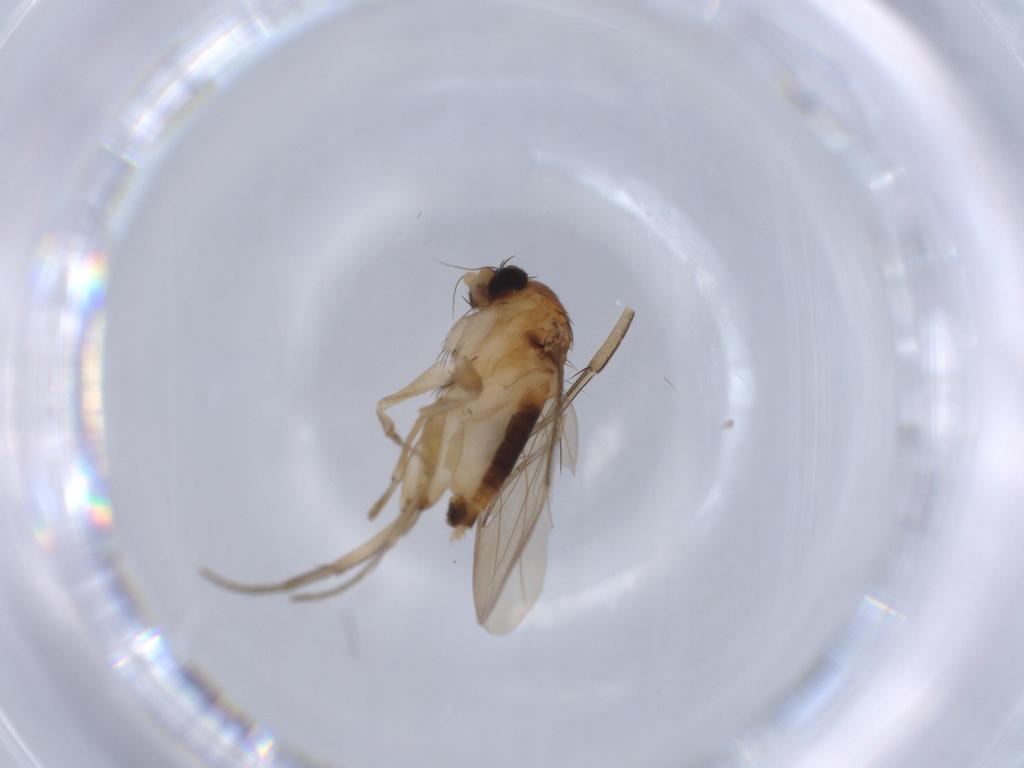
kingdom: Animalia
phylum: Arthropoda
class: Insecta
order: Diptera
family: Phoridae
